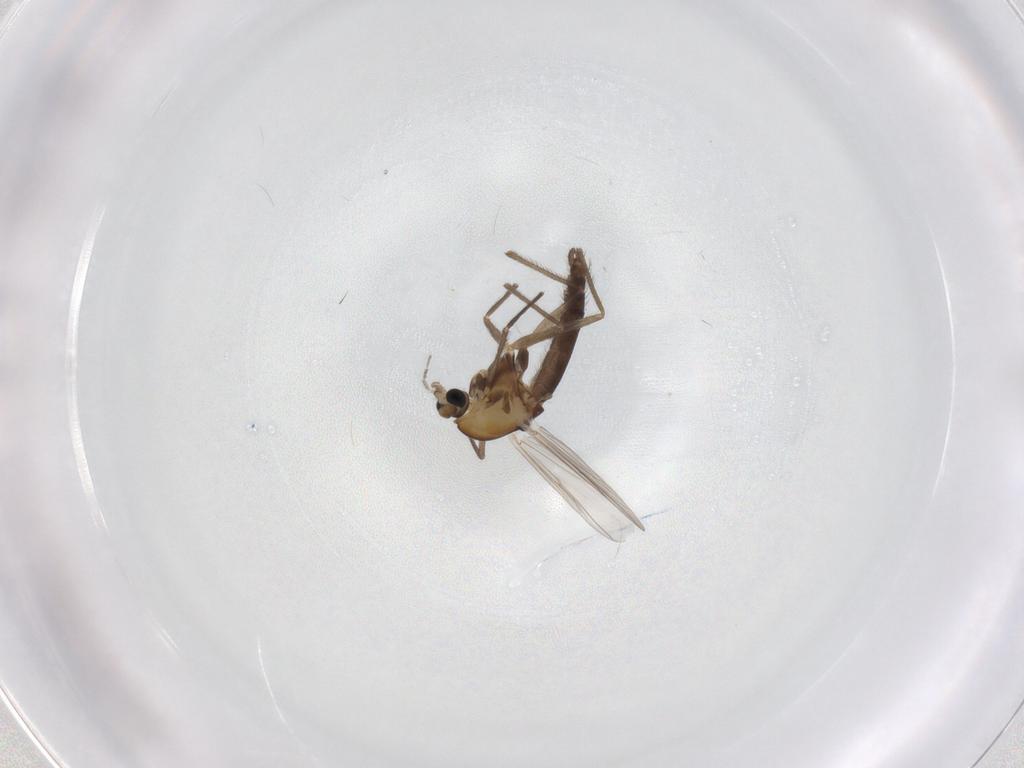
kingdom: Animalia
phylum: Arthropoda
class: Insecta
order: Diptera
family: Chironomidae
